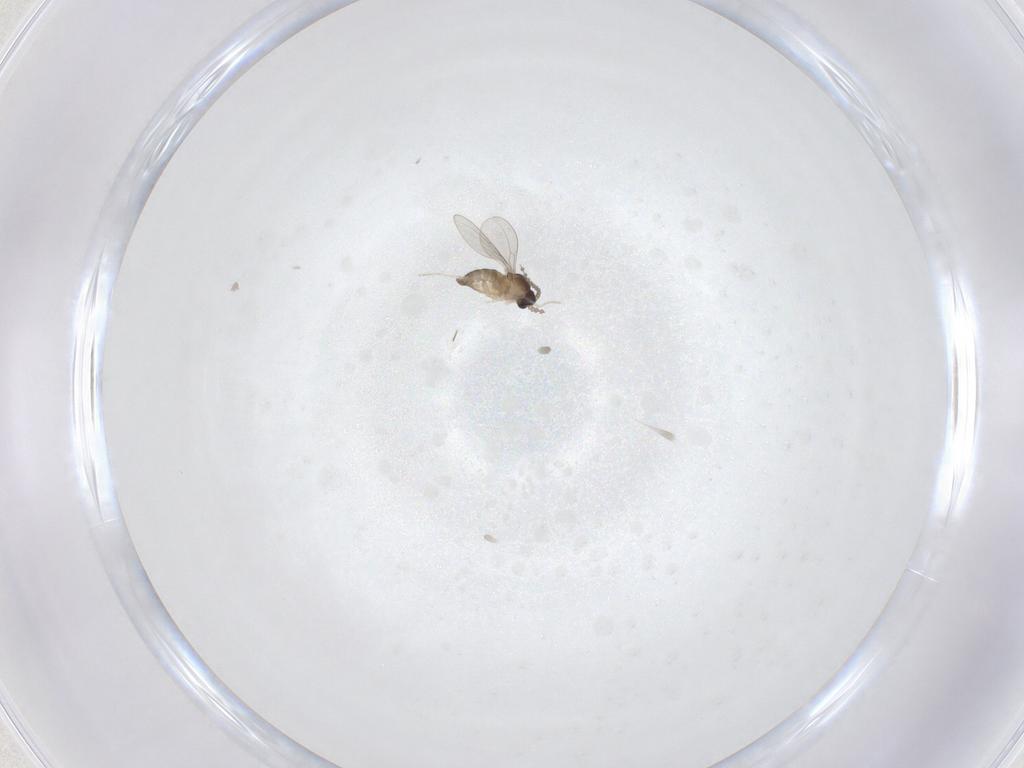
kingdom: Animalia
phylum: Arthropoda
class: Insecta
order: Diptera
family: Cecidomyiidae
